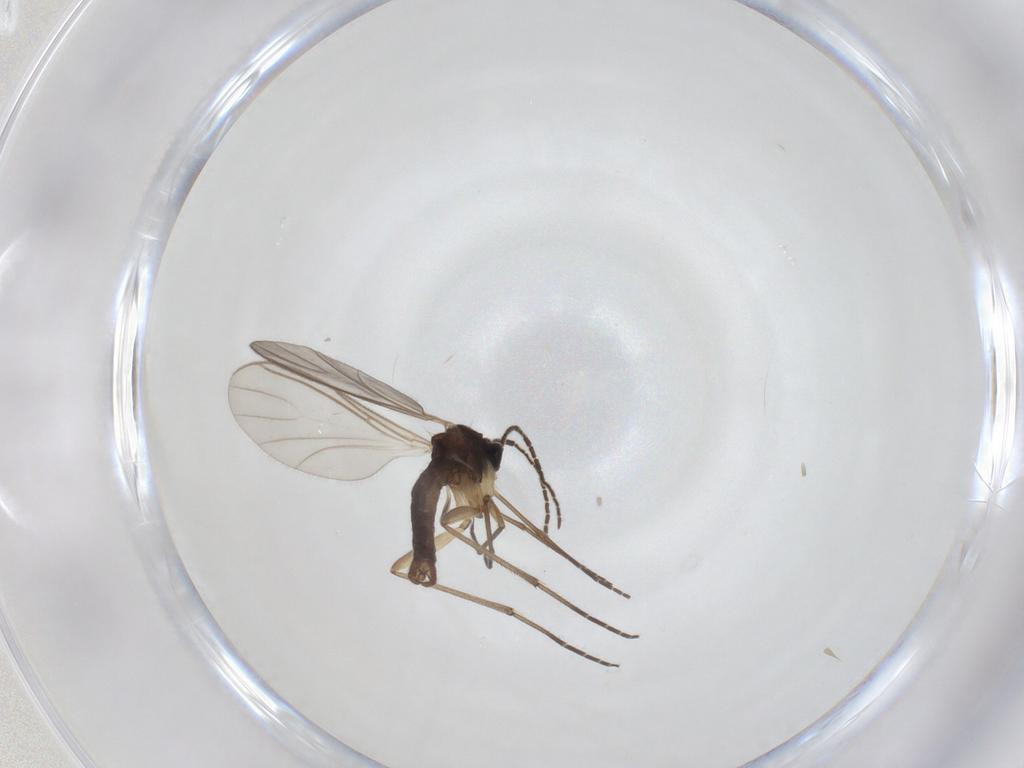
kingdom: Animalia
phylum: Arthropoda
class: Insecta
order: Diptera
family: Sciaridae
